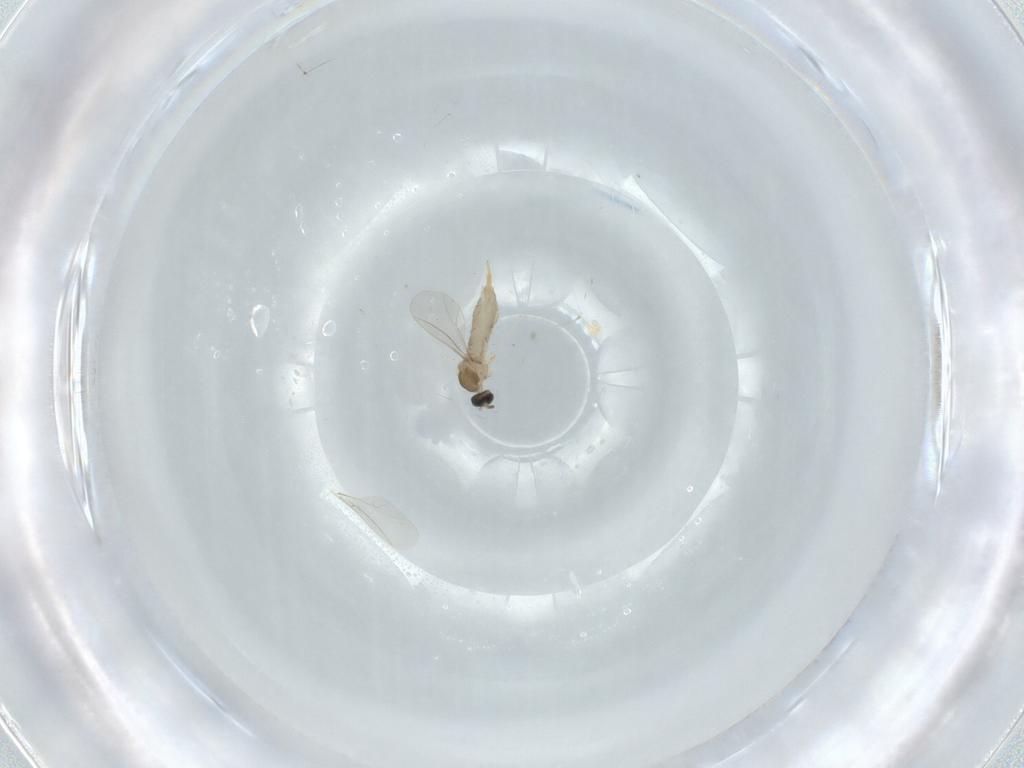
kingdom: Animalia
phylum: Arthropoda
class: Insecta
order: Diptera
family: Cecidomyiidae
